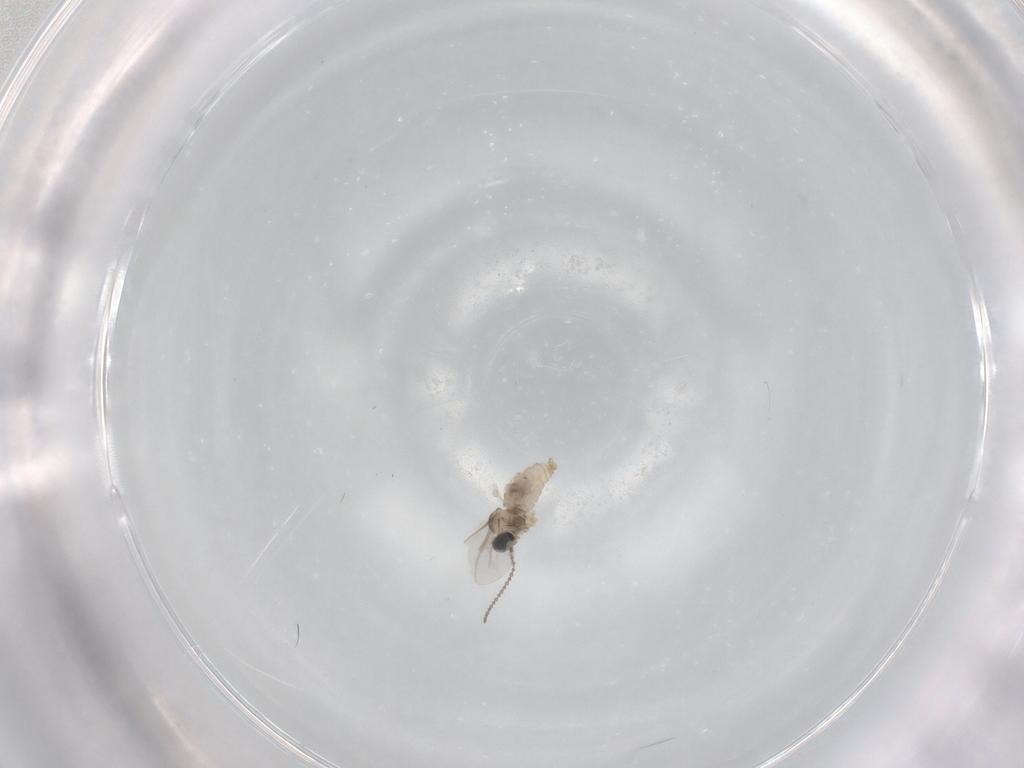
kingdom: Animalia
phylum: Arthropoda
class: Insecta
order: Diptera
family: Cecidomyiidae
